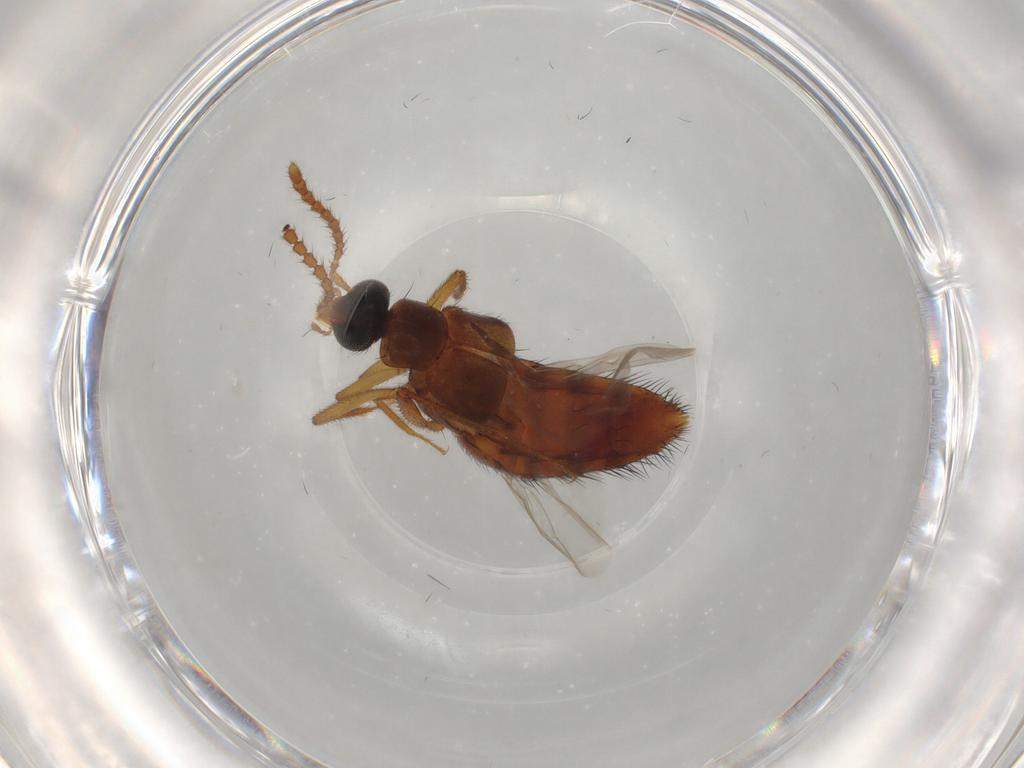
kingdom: Animalia
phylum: Arthropoda
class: Insecta
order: Coleoptera
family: Staphylinidae
